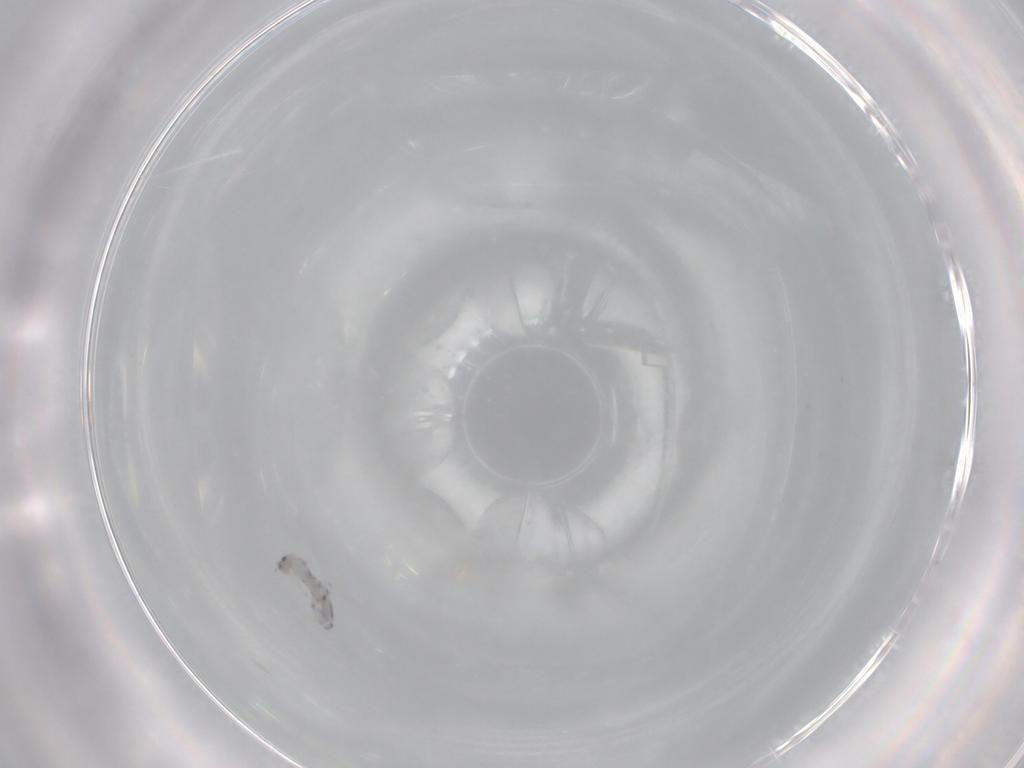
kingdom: Animalia
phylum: Arthropoda
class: Collembola
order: Entomobryomorpha
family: Entomobryidae
